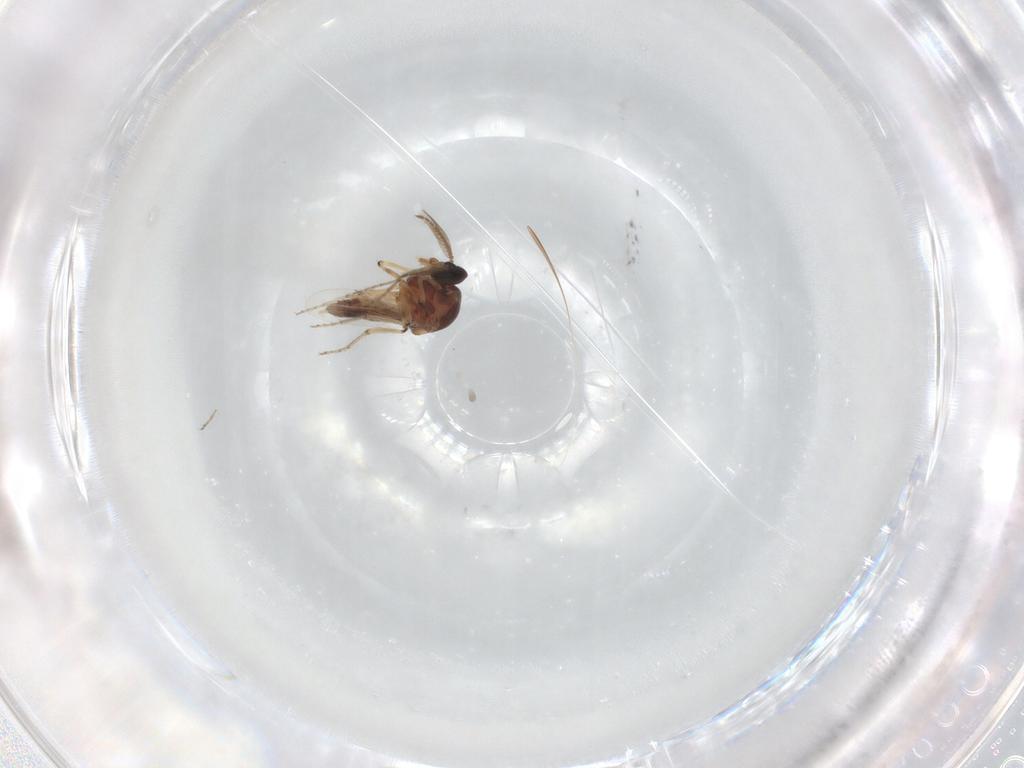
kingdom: Animalia
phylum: Arthropoda
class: Insecta
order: Diptera
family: Ceratopogonidae
